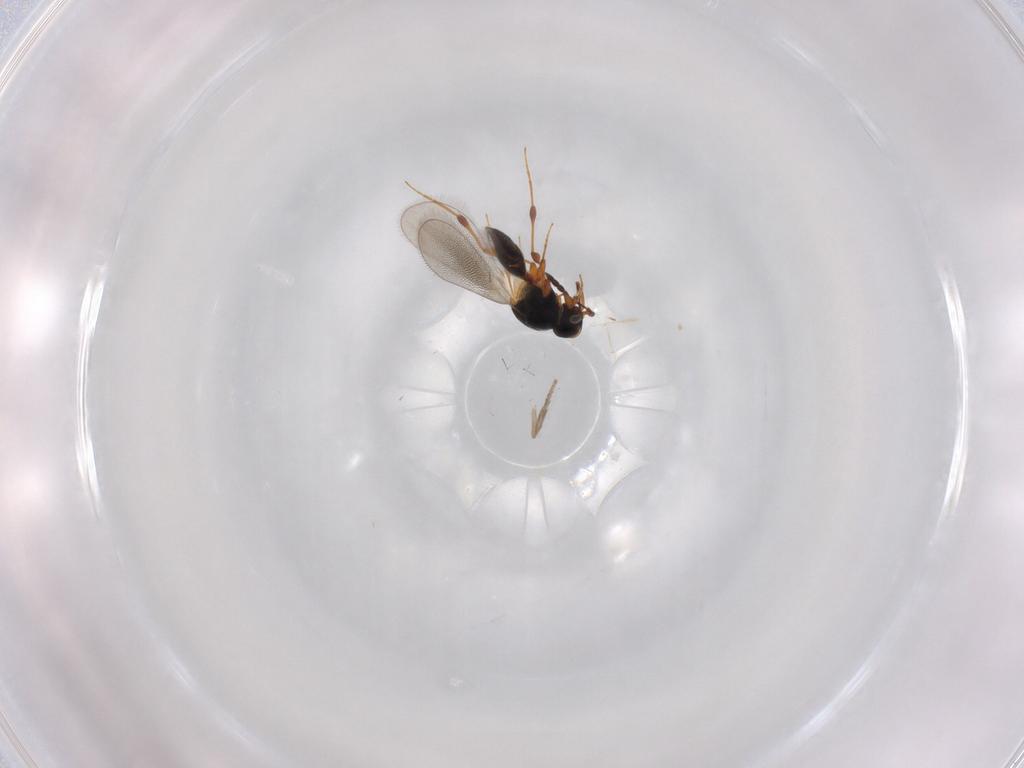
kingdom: Animalia
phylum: Arthropoda
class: Insecta
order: Hymenoptera
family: Platygastridae
